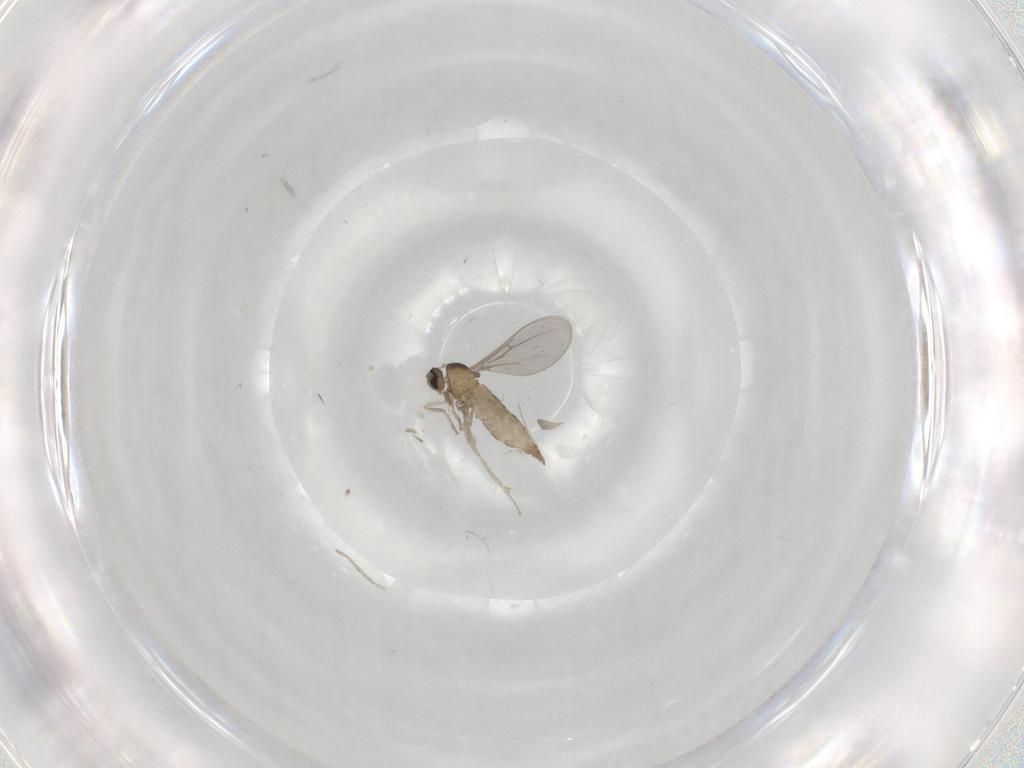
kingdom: Animalia
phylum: Arthropoda
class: Insecta
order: Diptera
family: Cecidomyiidae
